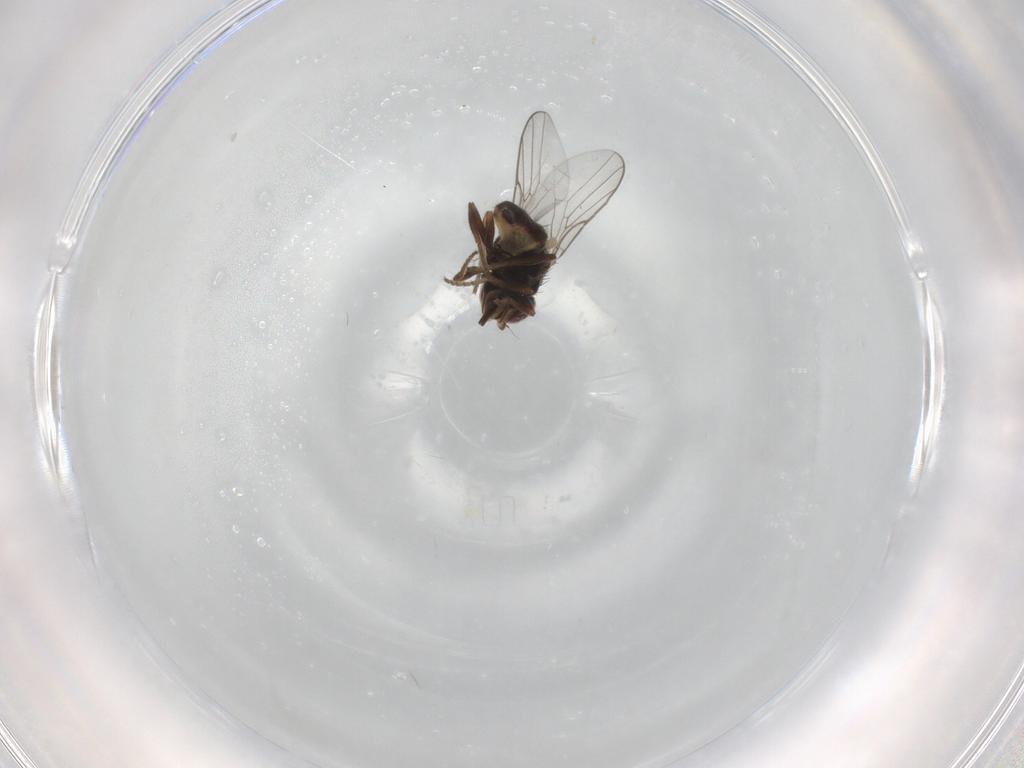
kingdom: Animalia
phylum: Arthropoda
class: Insecta
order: Diptera
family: Chloropidae
